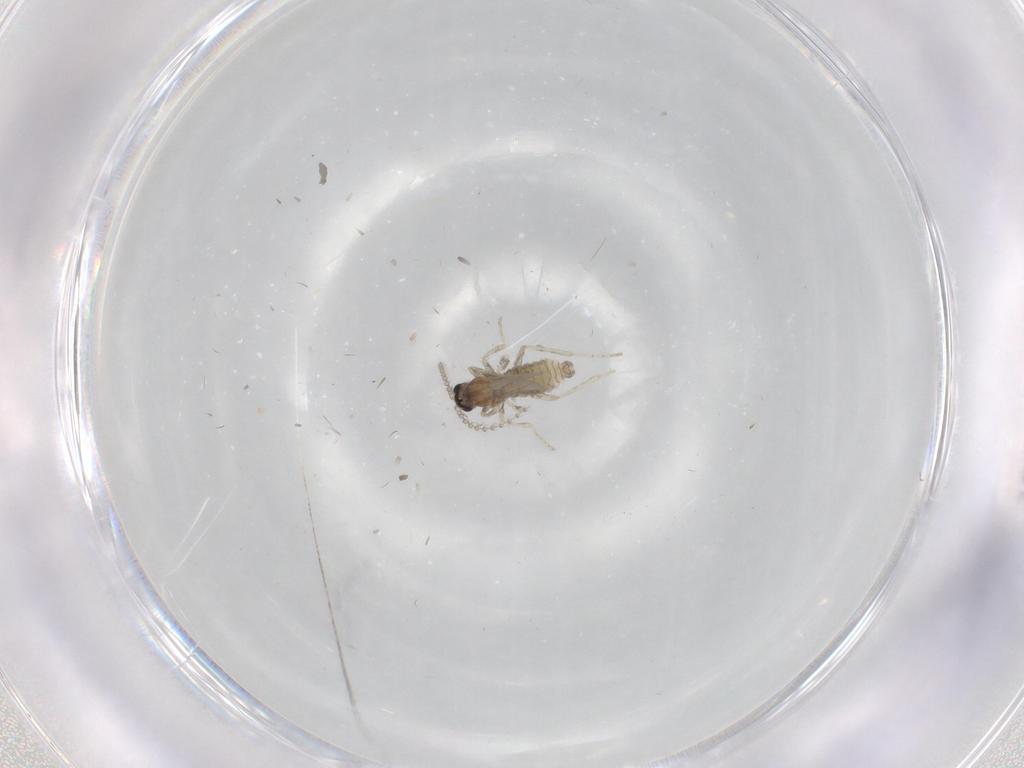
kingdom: Animalia
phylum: Arthropoda
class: Insecta
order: Diptera
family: Cecidomyiidae
